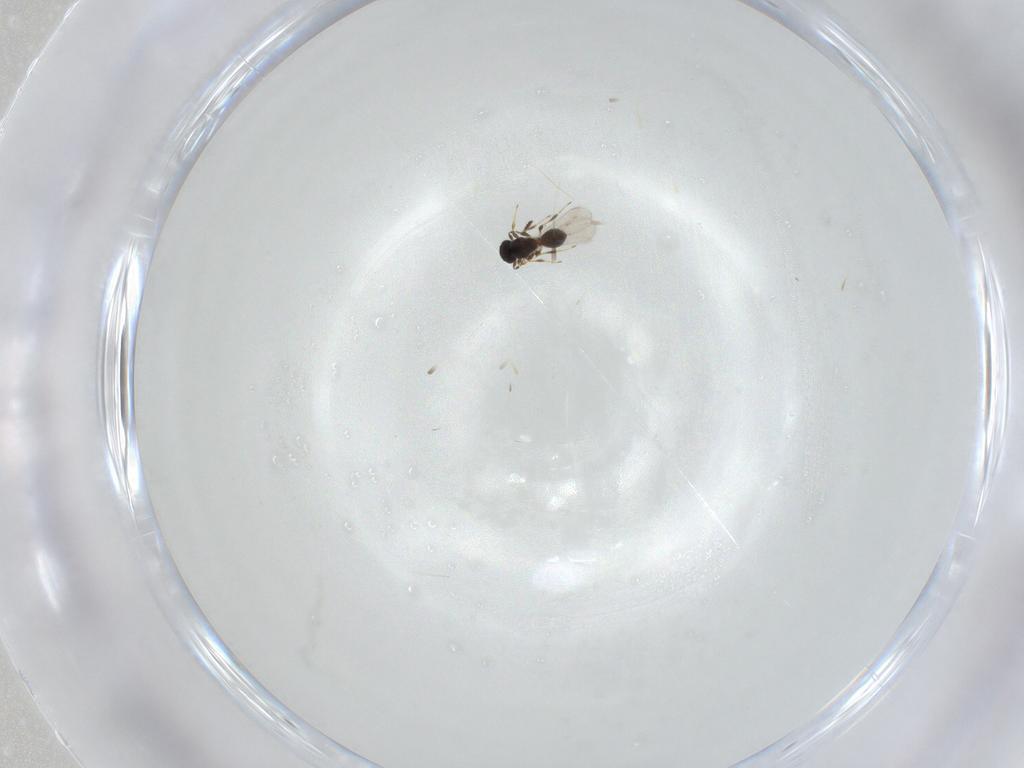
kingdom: Animalia
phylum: Arthropoda
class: Insecta
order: Hymenoptera
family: Platygastridae
